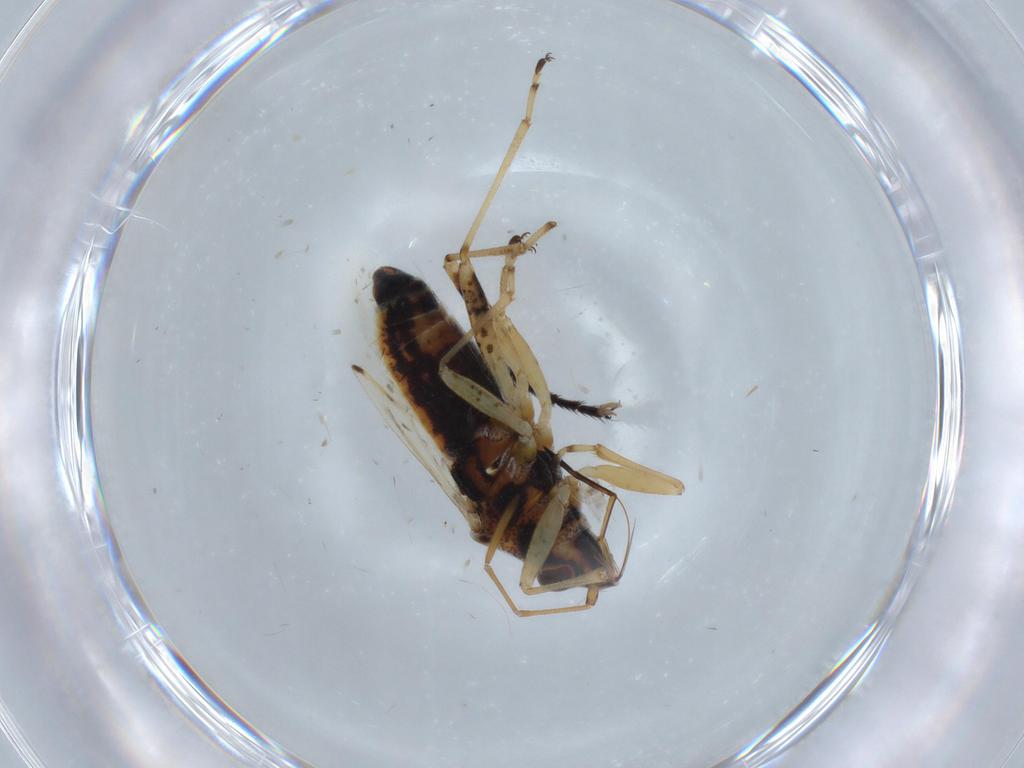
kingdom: Animalia
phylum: Arthropoda
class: Insecta
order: Hemiptera
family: Lygaeidae
